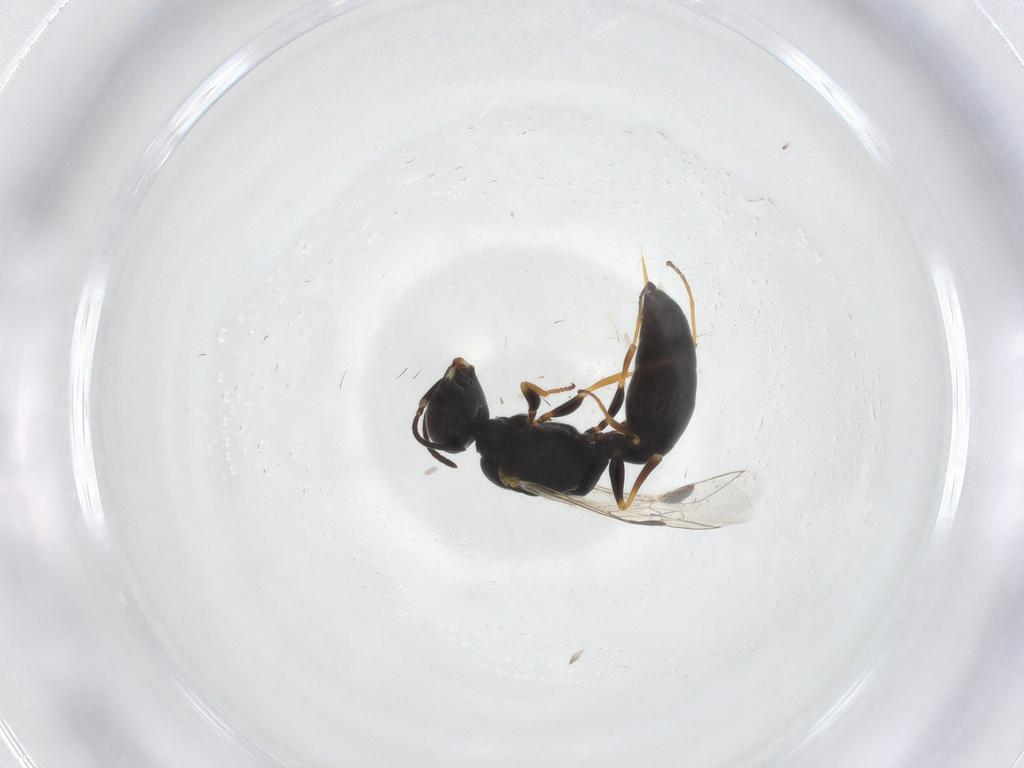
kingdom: Animalia
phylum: Arthropoda
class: Insecta
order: Hymenoptera
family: Crabronidae
